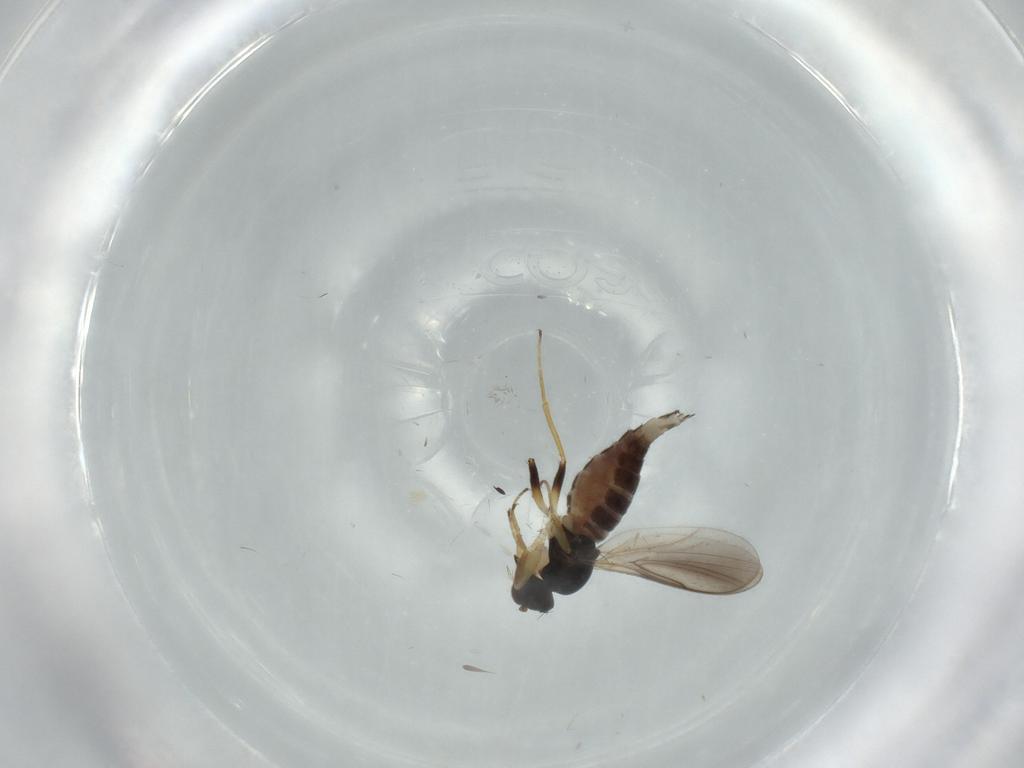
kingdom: Animalia
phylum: Arthropoda
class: Insecta
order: Diptera
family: Hybotidae
